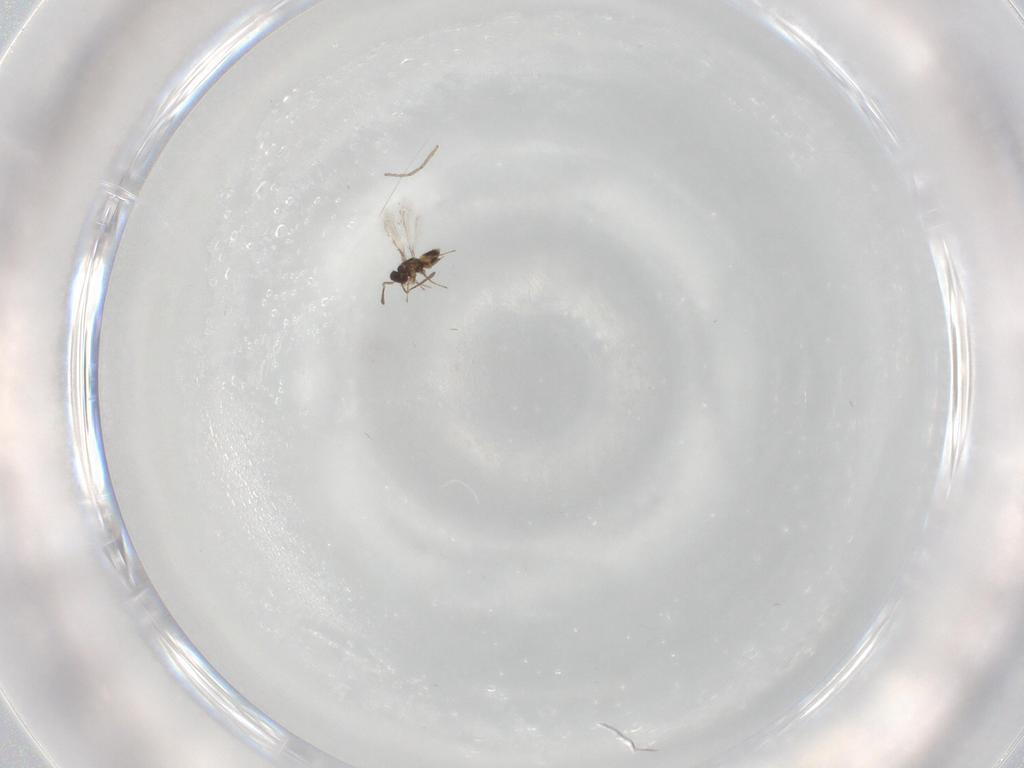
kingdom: Animalia
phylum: Arthropoda
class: Insecta
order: Hymenoptera
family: Mymaridae
